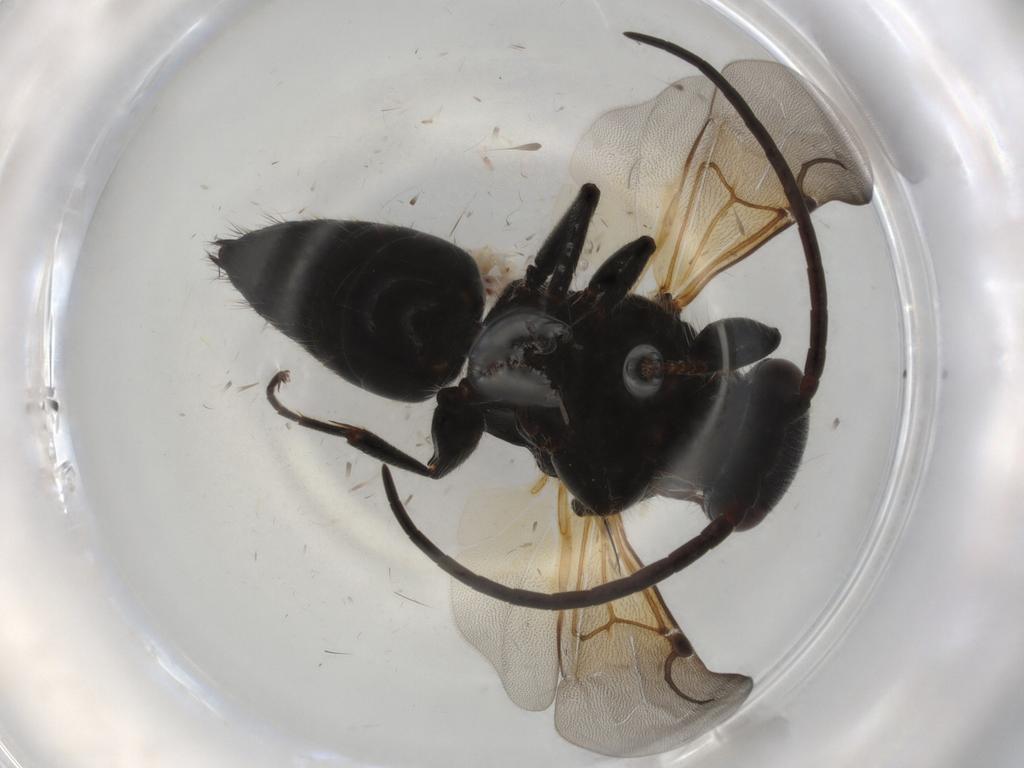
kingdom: Animalia
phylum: Arthropoda
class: Insecta
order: Hymenoptera
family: Bethylidae
